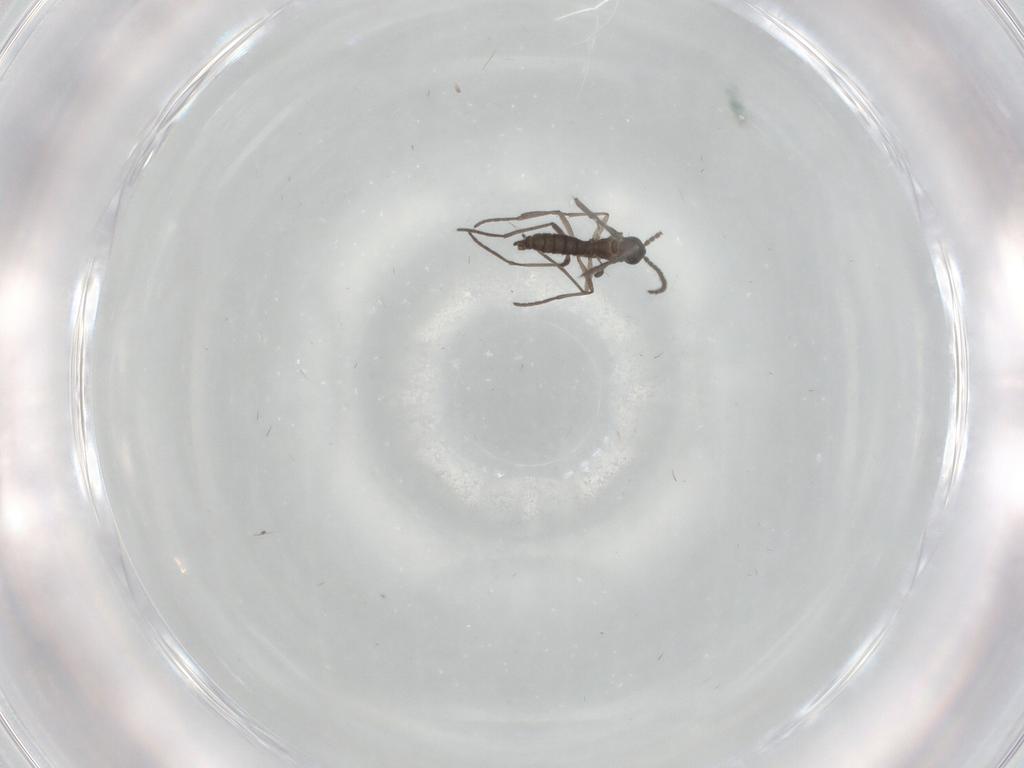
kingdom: Animalia
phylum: Arthropoda
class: Insecta
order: Diptera
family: Limoniidae
